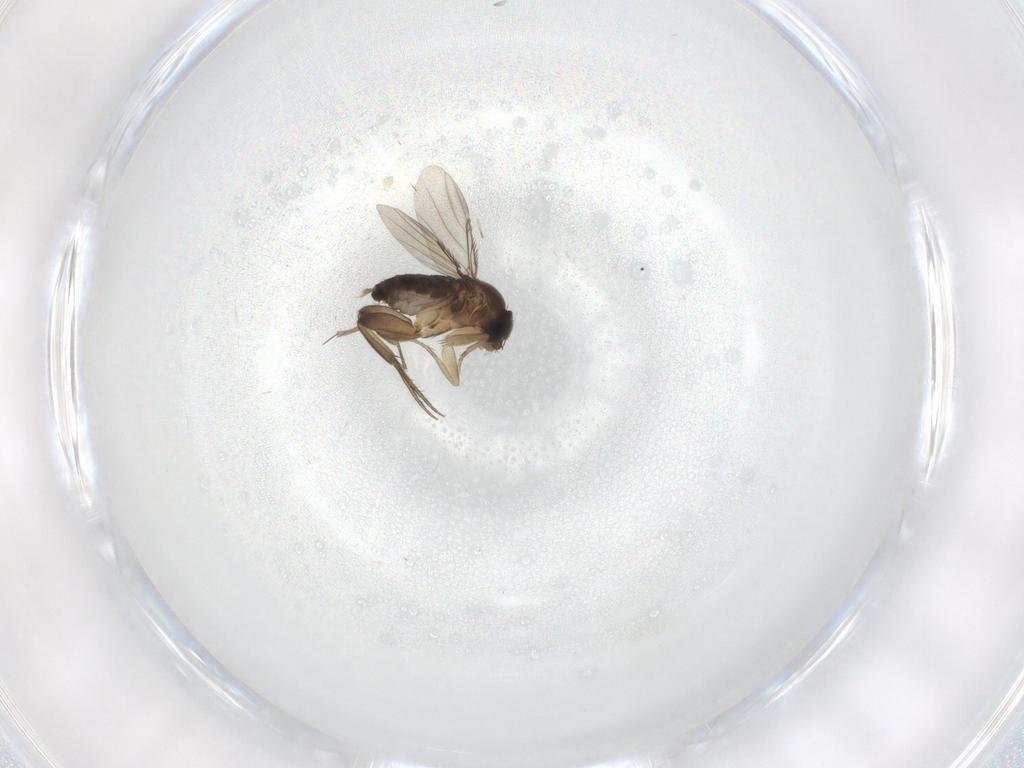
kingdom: Animalia
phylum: Arthropoda
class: Insecta
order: Diptera
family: Phoridae
